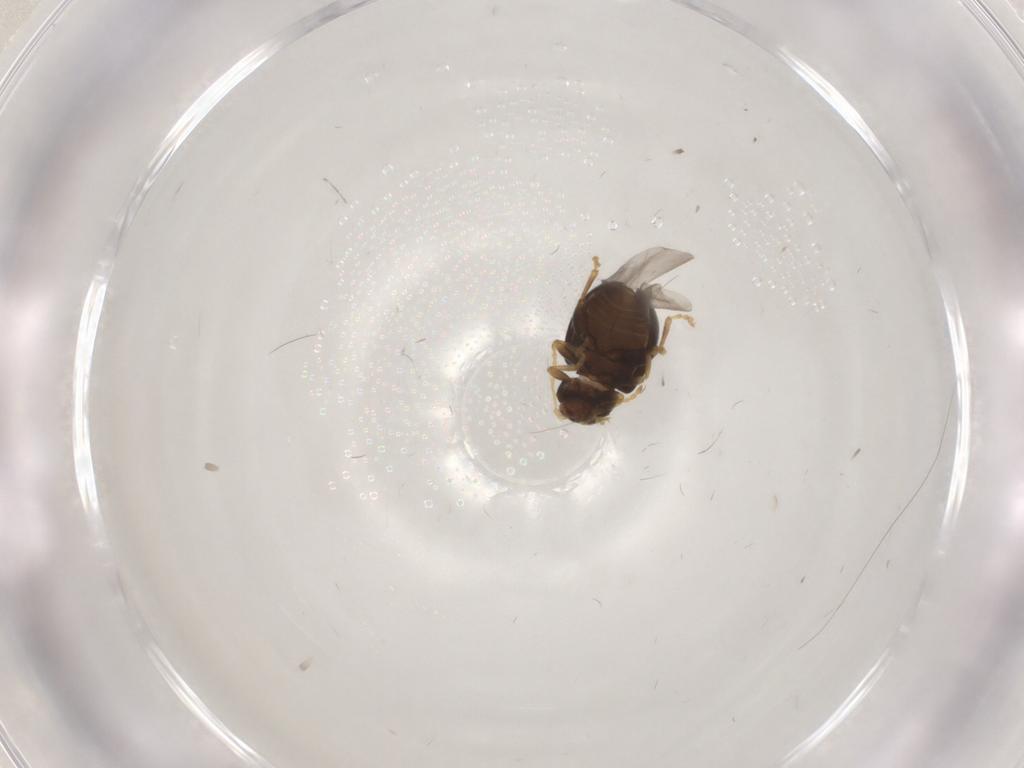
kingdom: Animalia
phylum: Arthropoda
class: Insecta
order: Coleoptera
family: Chrysomelidae
